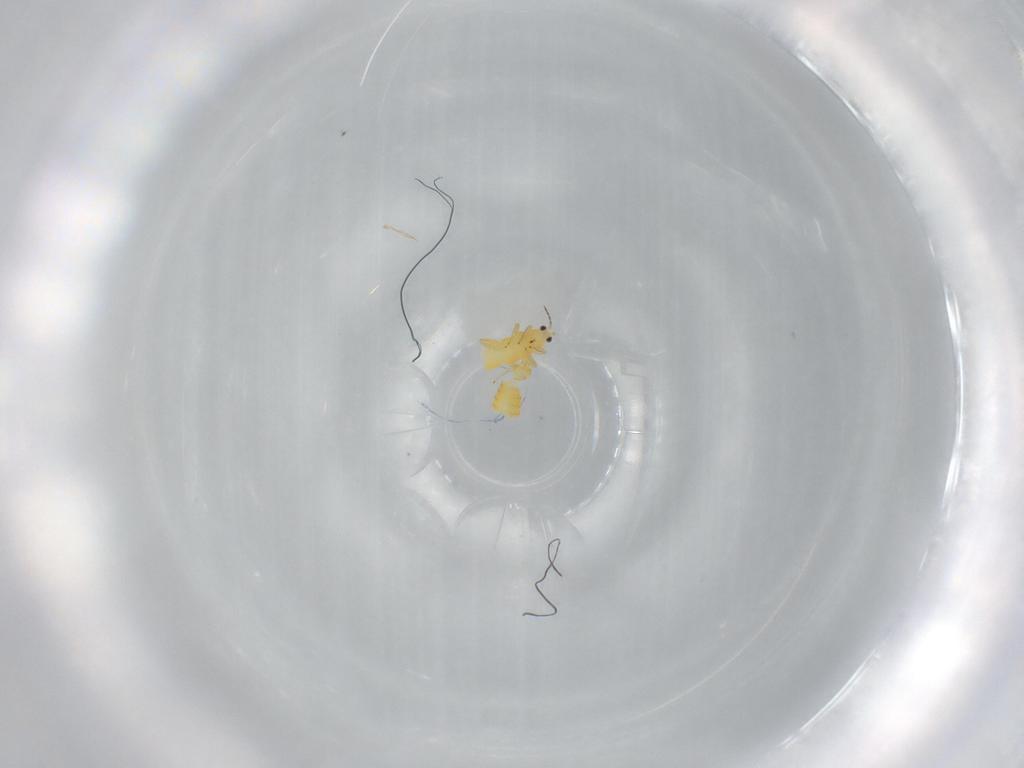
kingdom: Animalia
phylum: Arthropoda
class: Insecta
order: Thysanoptera
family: Thripidae
